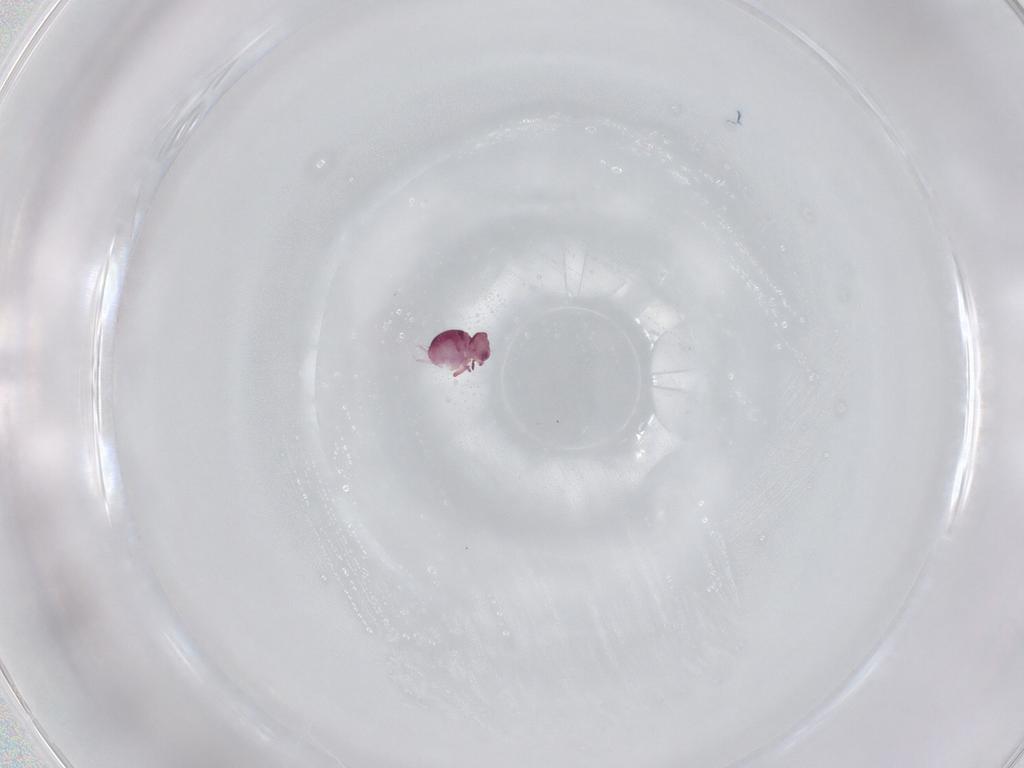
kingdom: Animalia
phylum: Arthropoda
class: Collembola
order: Symphypleona
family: Sminthurididae
